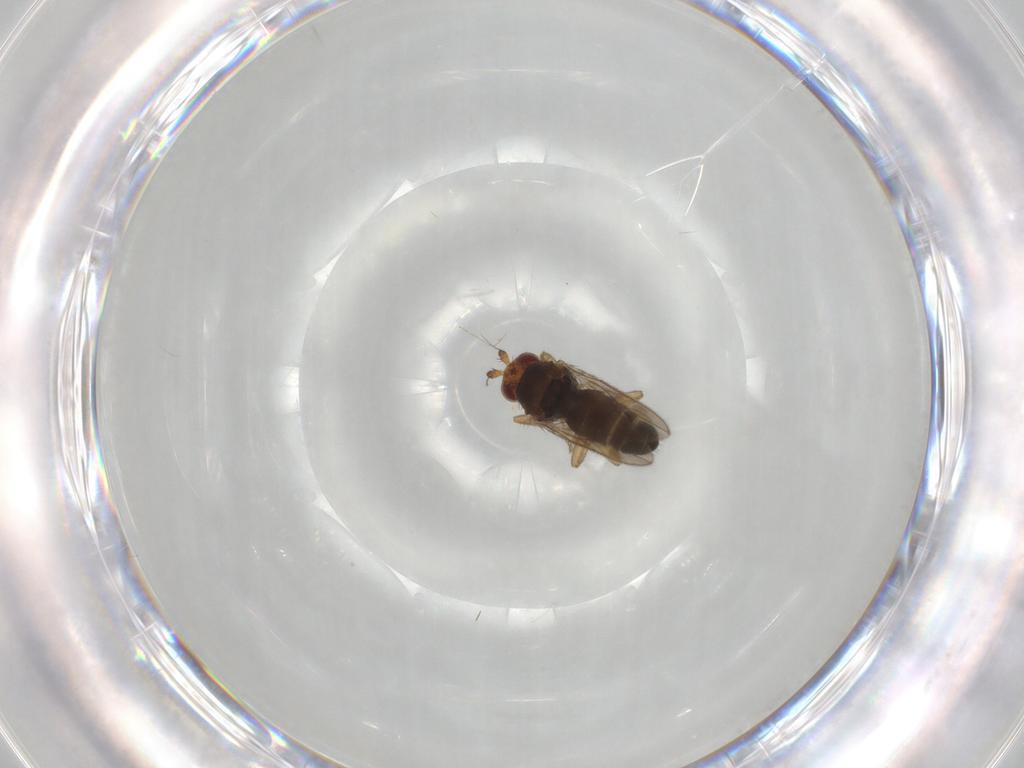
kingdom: Animalia
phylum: Arthropoda
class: Insecta
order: Diptera
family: Sphaeroceridae
